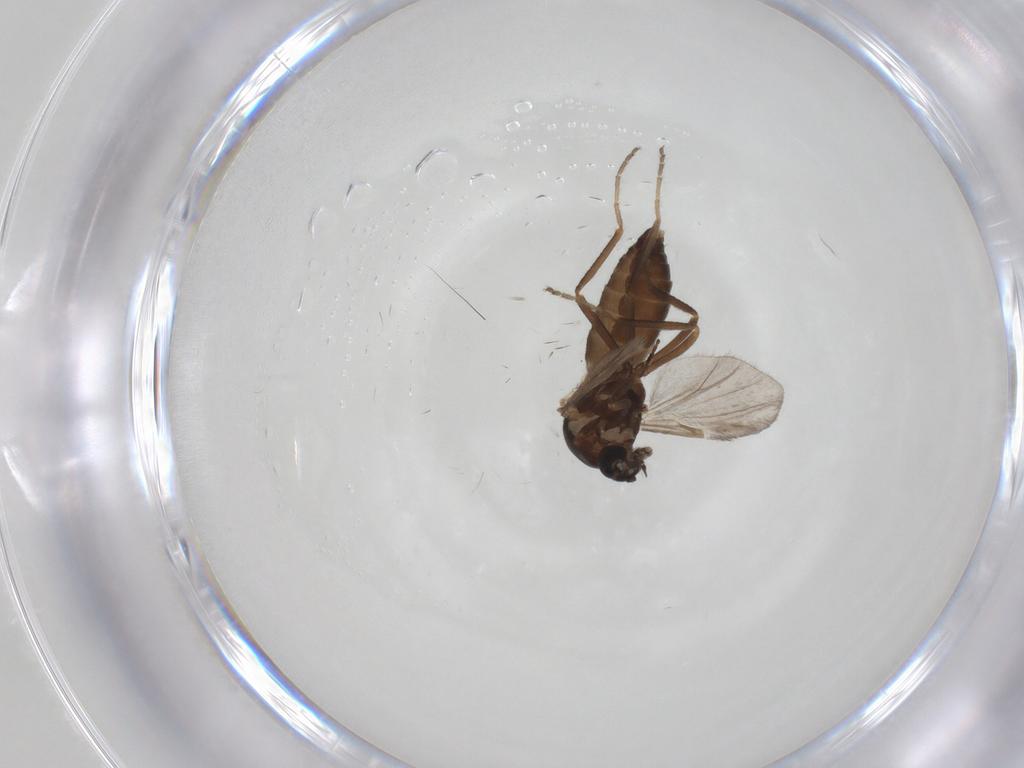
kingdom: Animalia
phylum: Arthropoda
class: Insecta
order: Diptera
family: Ceratopogonidae
